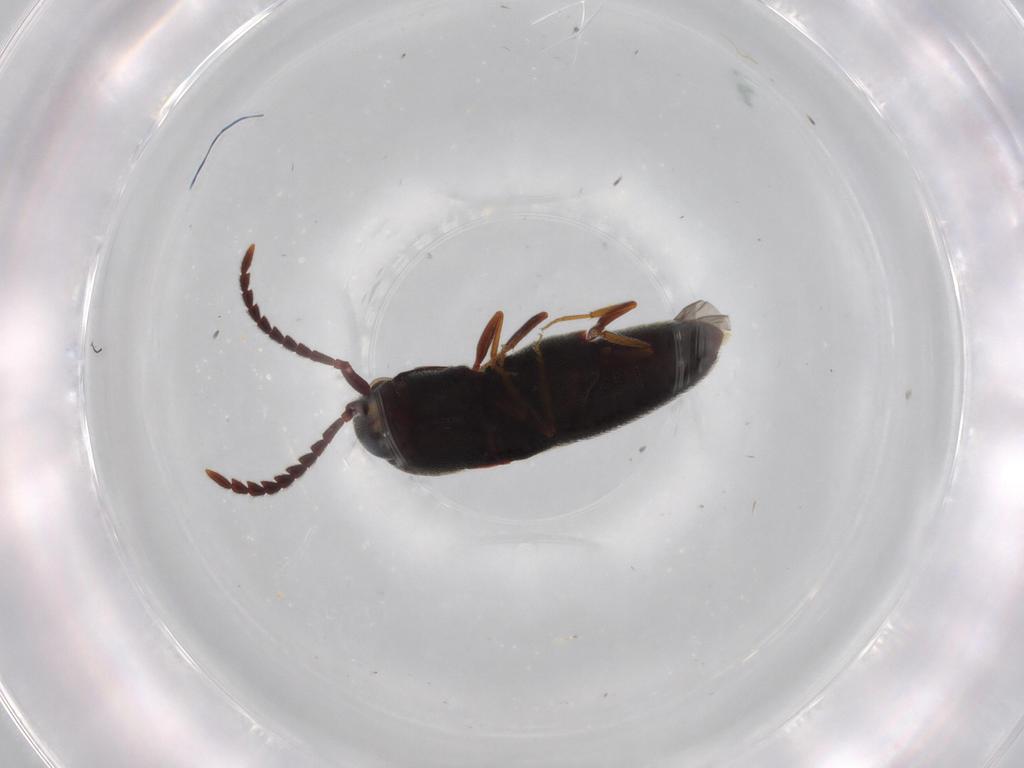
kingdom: Animalia
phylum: Arthropoda
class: Insecta
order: Coleoptera
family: Eucnemidae
